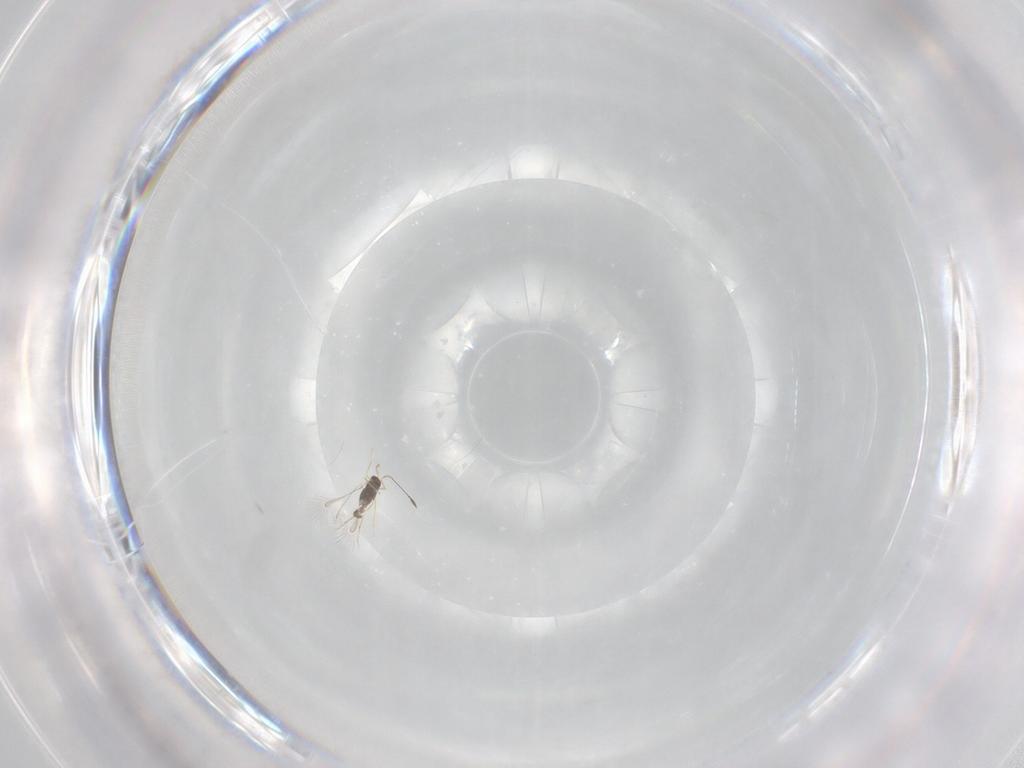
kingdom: Animalia
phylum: Arthropoda
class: Insecta
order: Hymenoptera
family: Mymaridae
